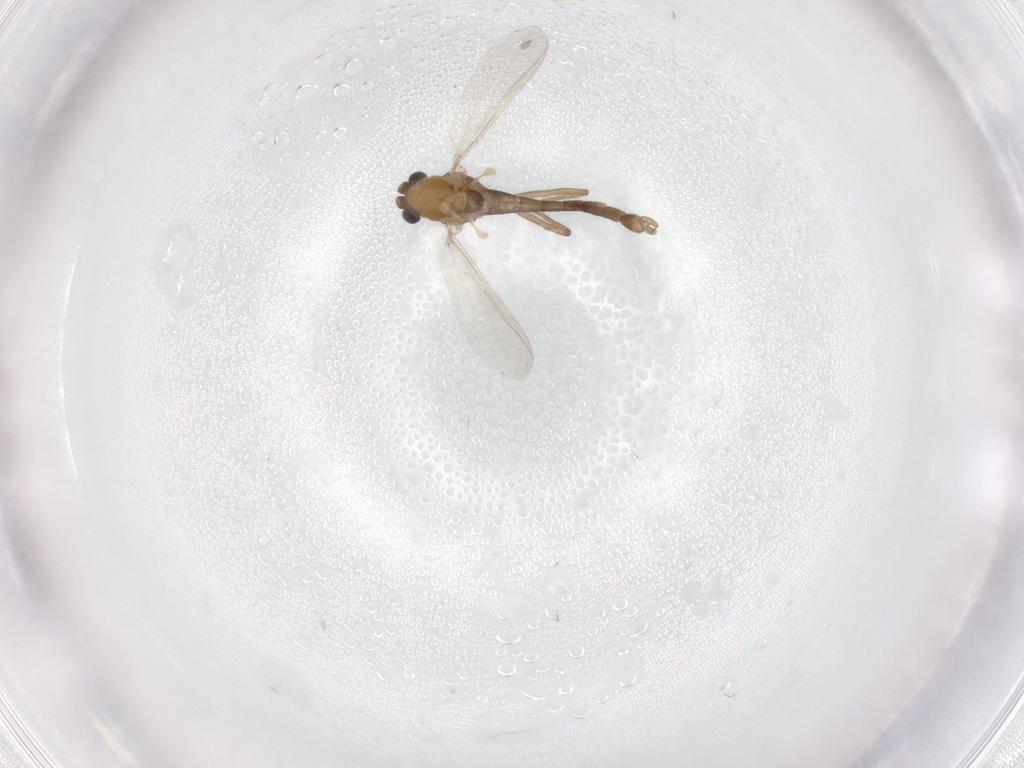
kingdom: Animalia
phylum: Arthropoda
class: Insecta
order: Diptera
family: Chironomidae
